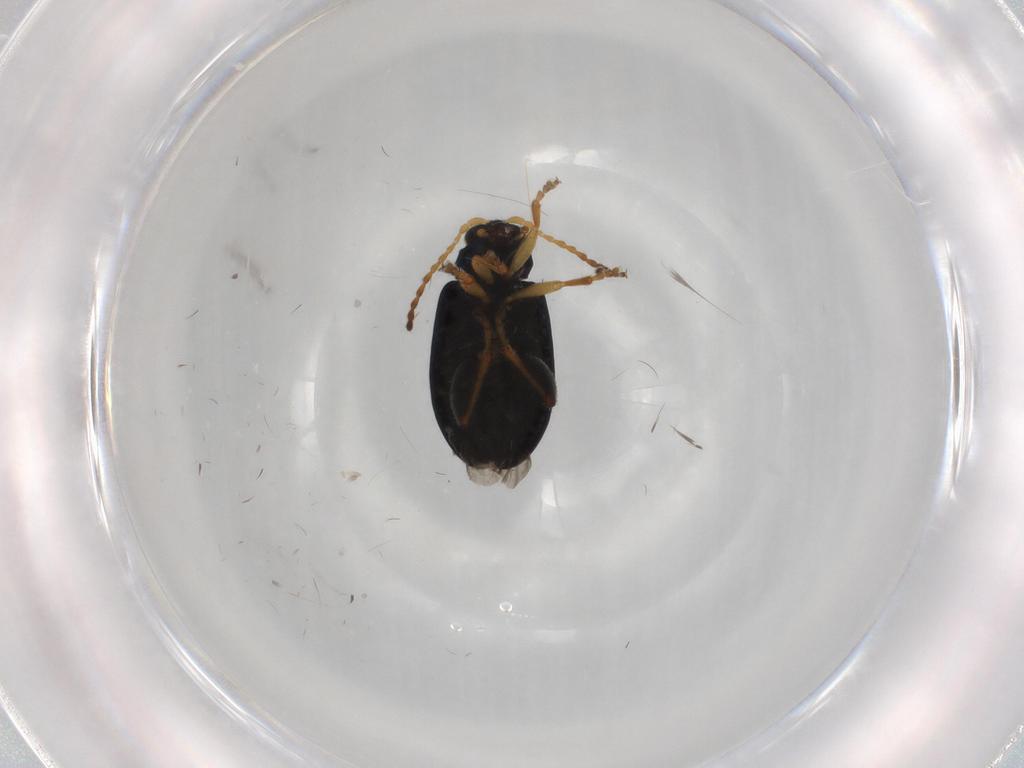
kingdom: Animalia
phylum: Arthropoda
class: Insecta
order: Coleoptera
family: Chrysomelidae
